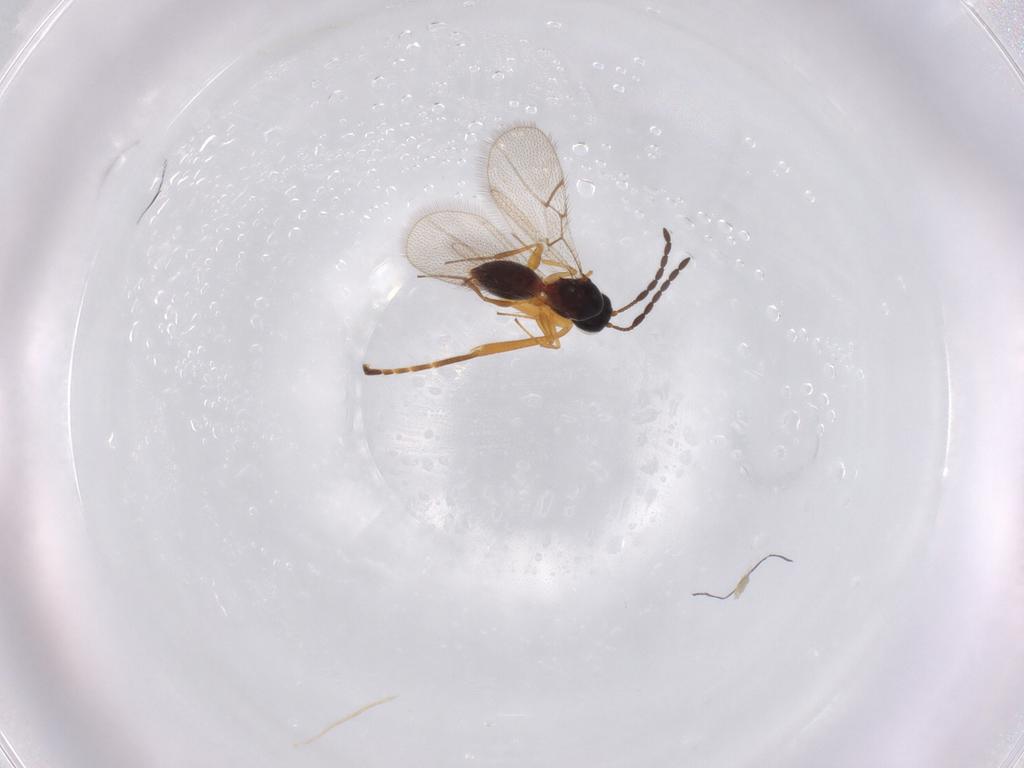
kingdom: Animalia
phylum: Arthropoda
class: Insecta
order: Hymenoptera
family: Figitidae
